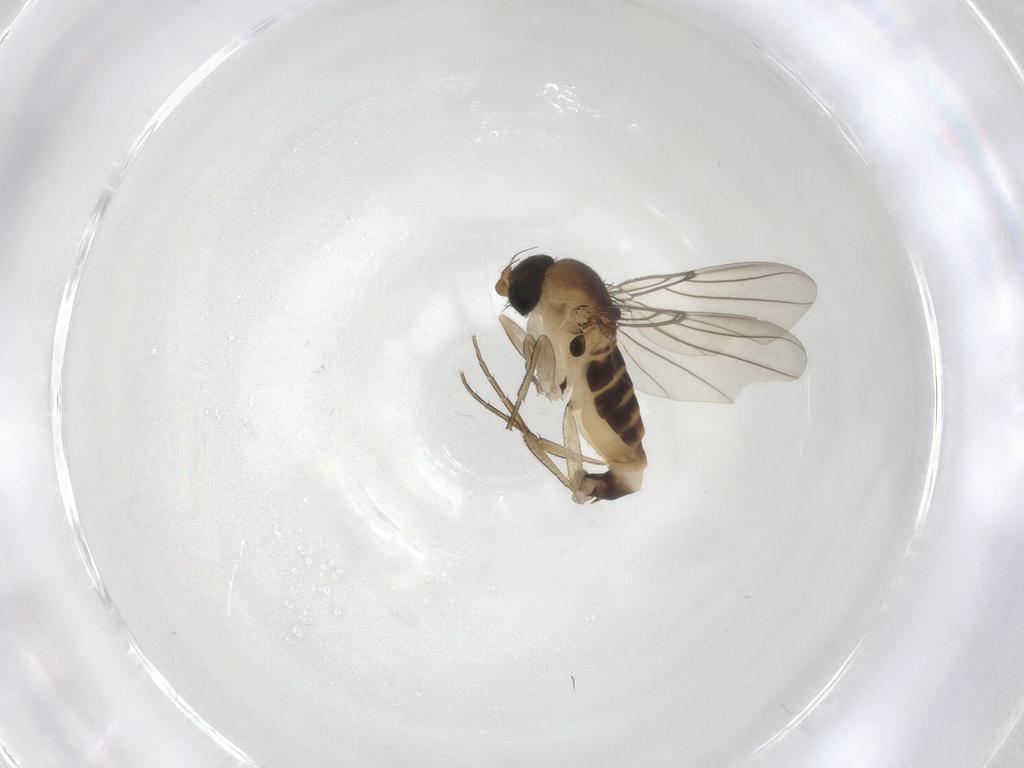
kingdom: Animalia
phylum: Arthropoda
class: Insecta
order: Diptera
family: Phoridae
